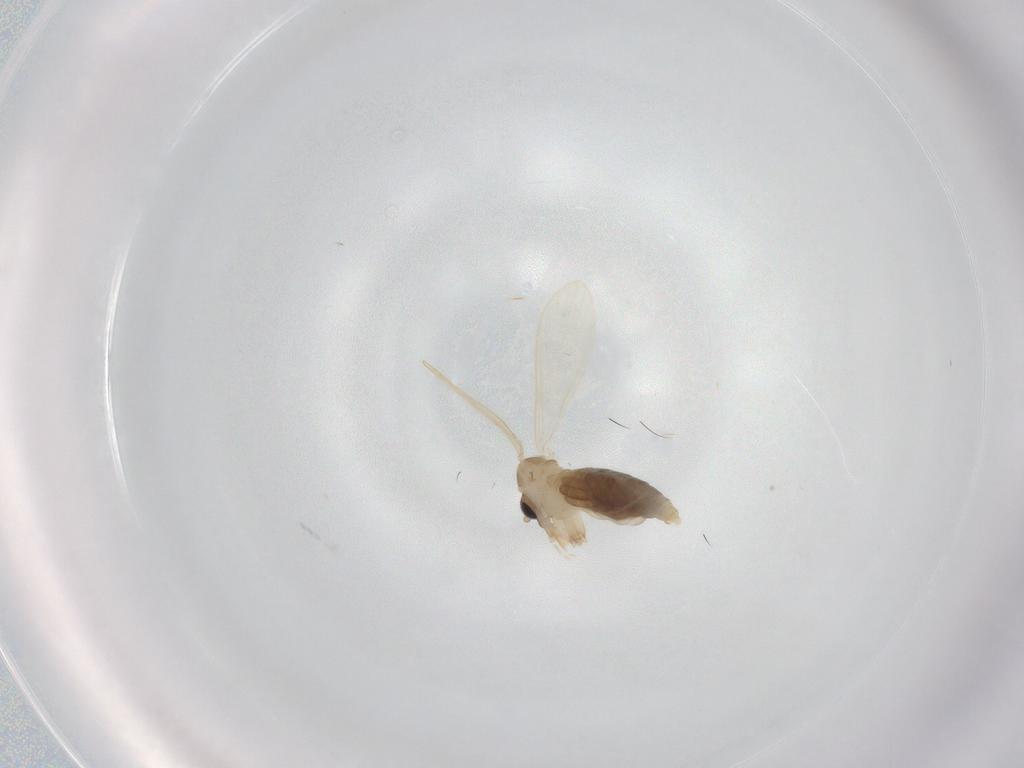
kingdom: Animalia
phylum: Arthropoda
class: Insecta
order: Diptera
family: Psychodidae
